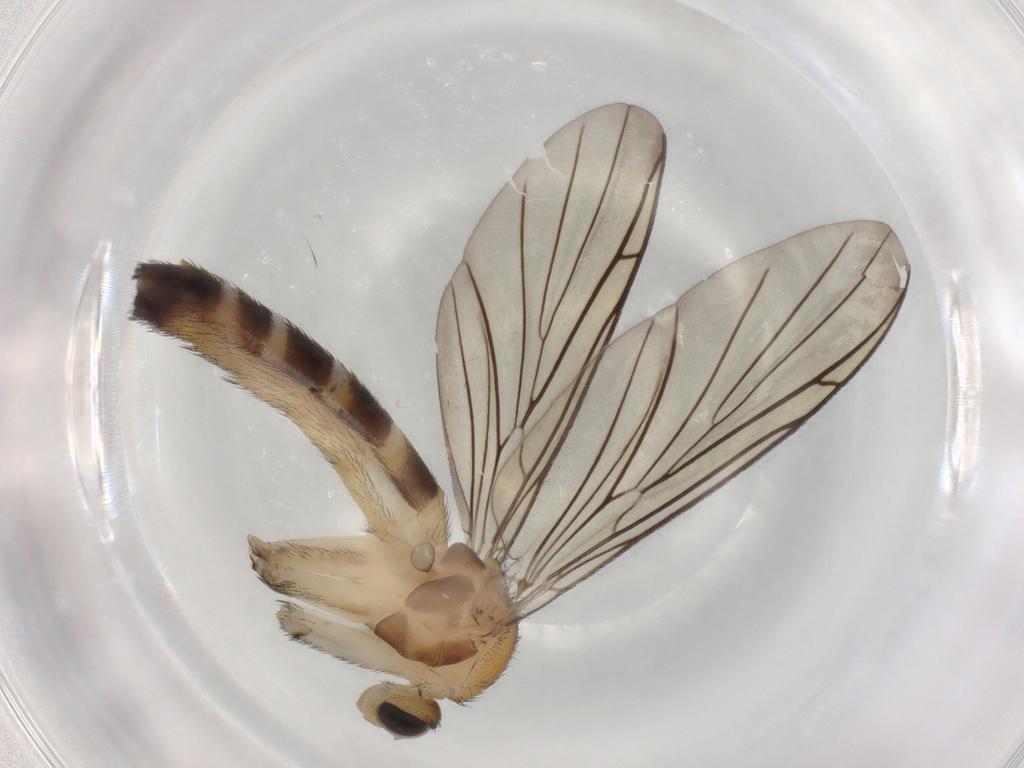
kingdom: Animalia
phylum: Arthropoda
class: Insecta
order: Diptera
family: Phoridae
